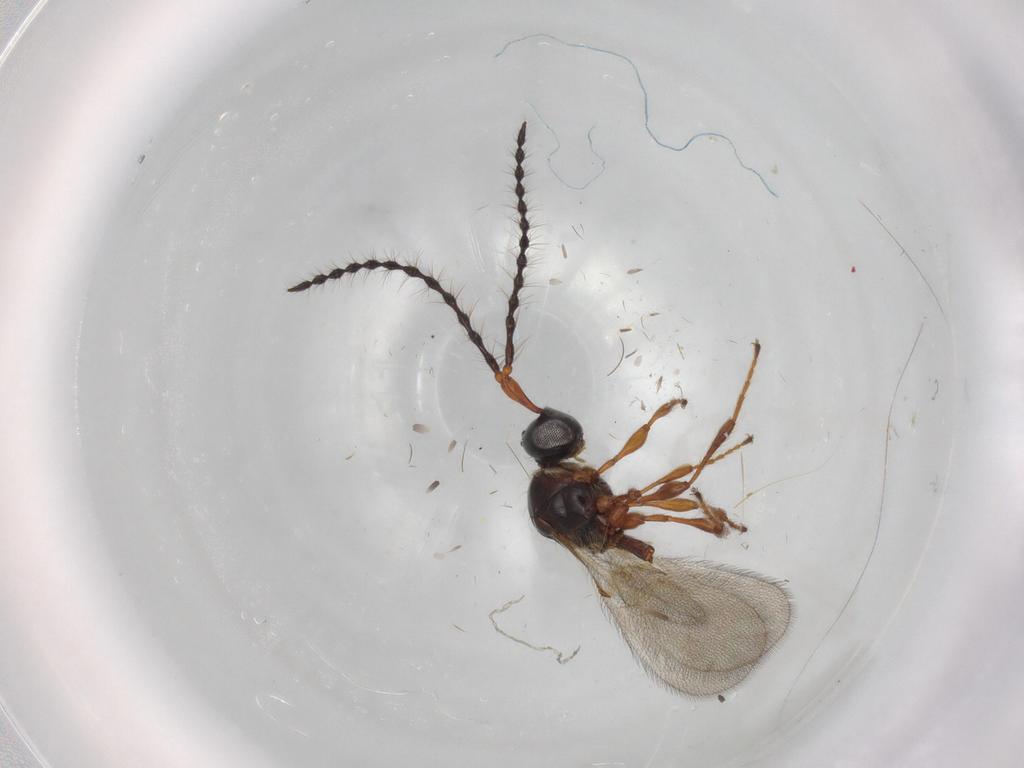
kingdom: Animalia
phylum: Arthropoda
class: Insecta
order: Hymenoptera
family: Diapriidae
